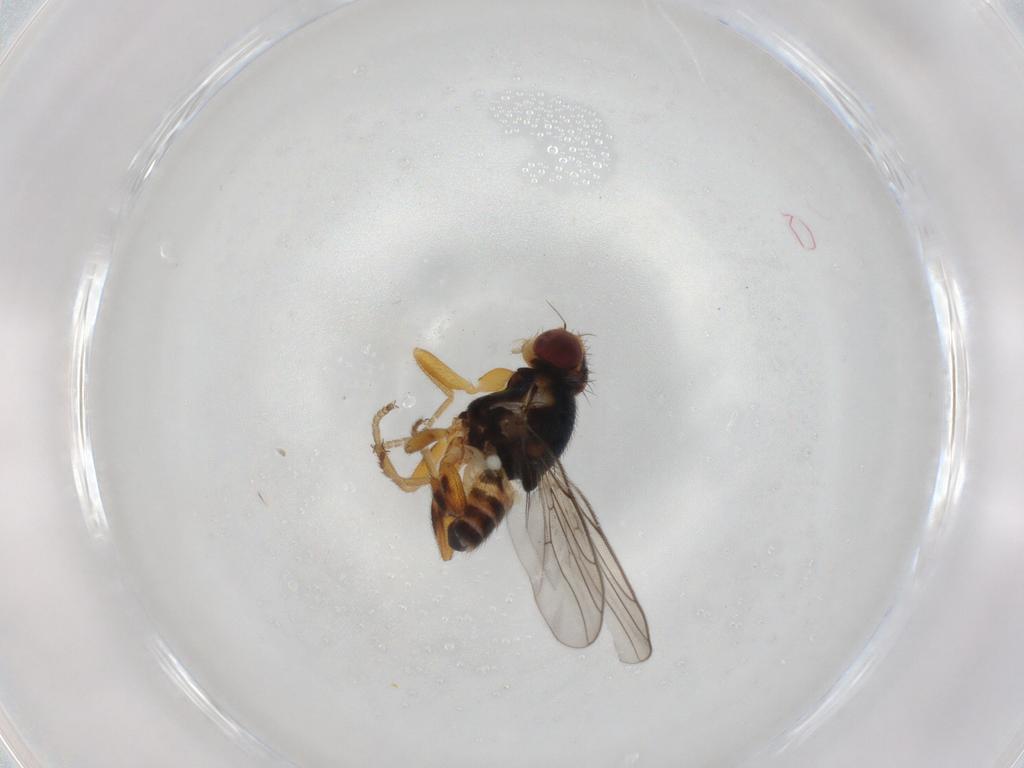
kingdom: Animalia
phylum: Arthropoda
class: Insecta
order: Diptera
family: Chloropidae
